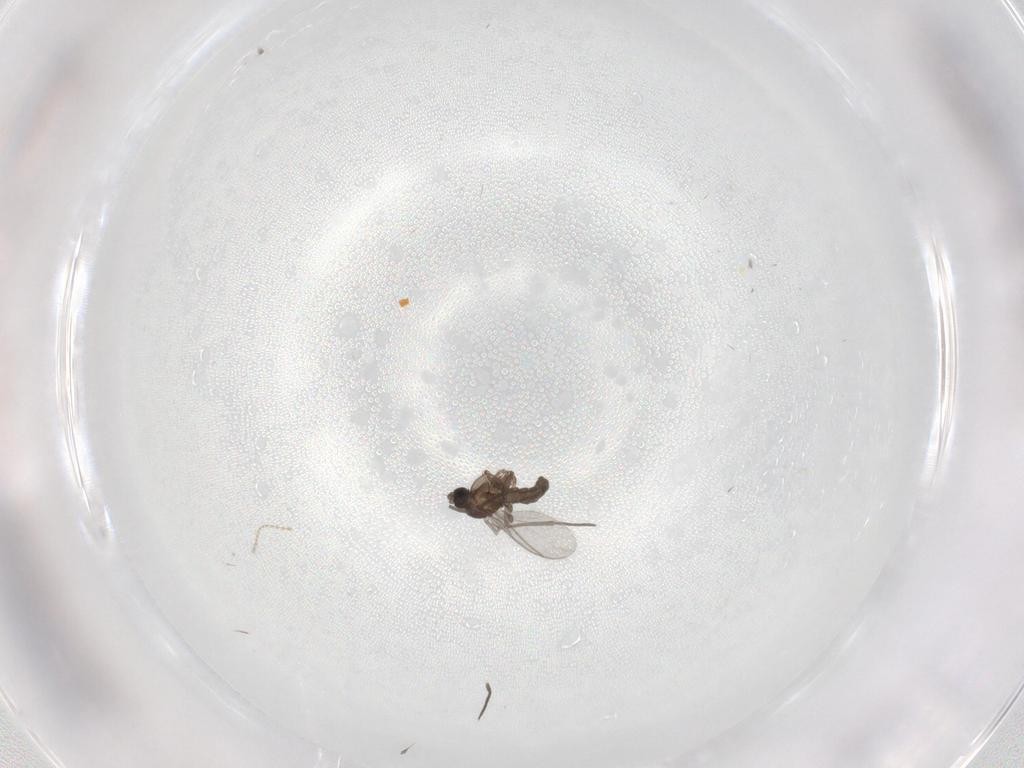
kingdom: Animalia
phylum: Arthropoda
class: Insecta
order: Diptera
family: Sciaridae
